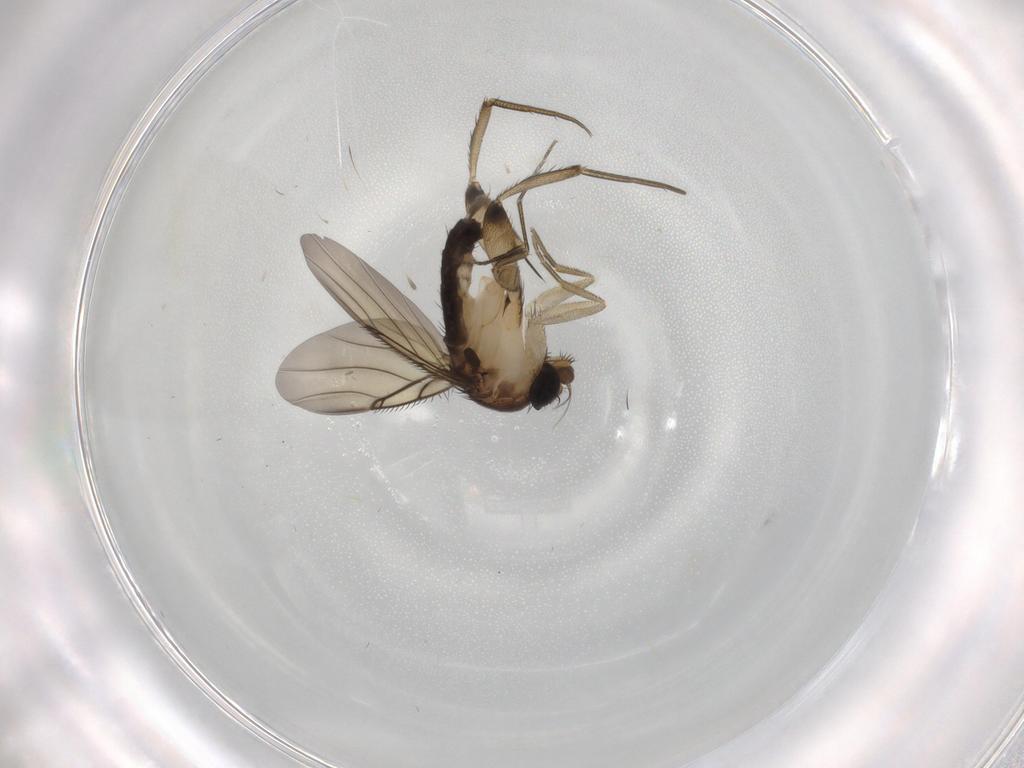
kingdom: Animalia
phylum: Arthropoda
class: Insecta
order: Diptera
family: Phoridae
